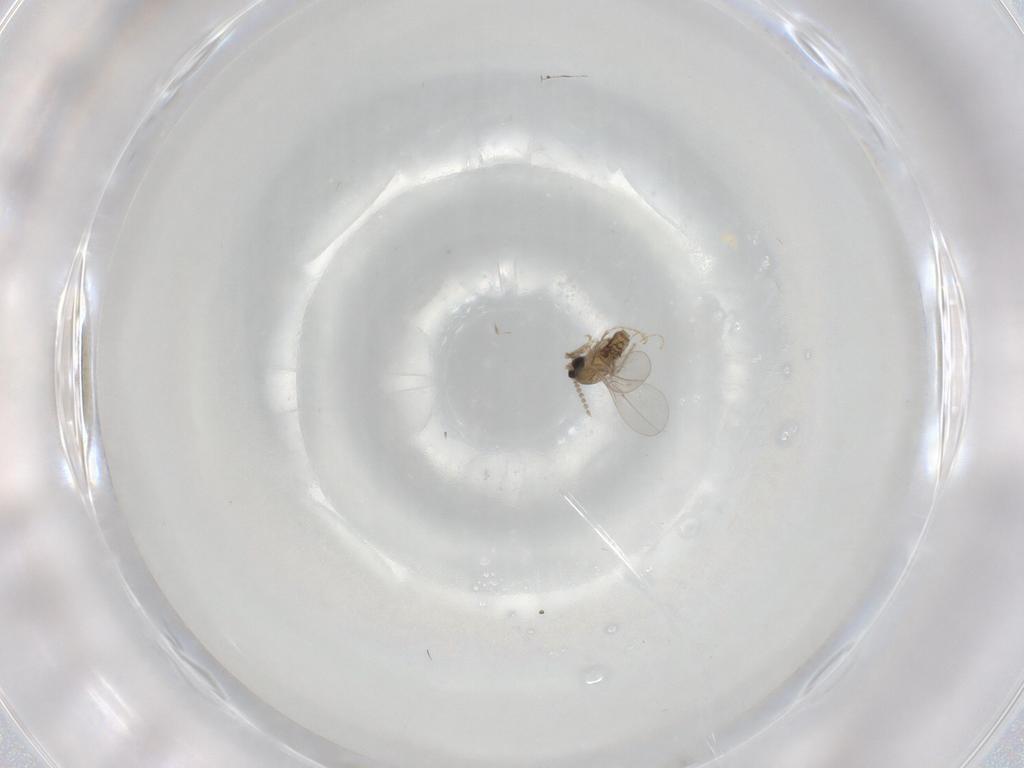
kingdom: Animalia
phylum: Arthropoda
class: Insecta
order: Diptera
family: Cecidomyiidae
